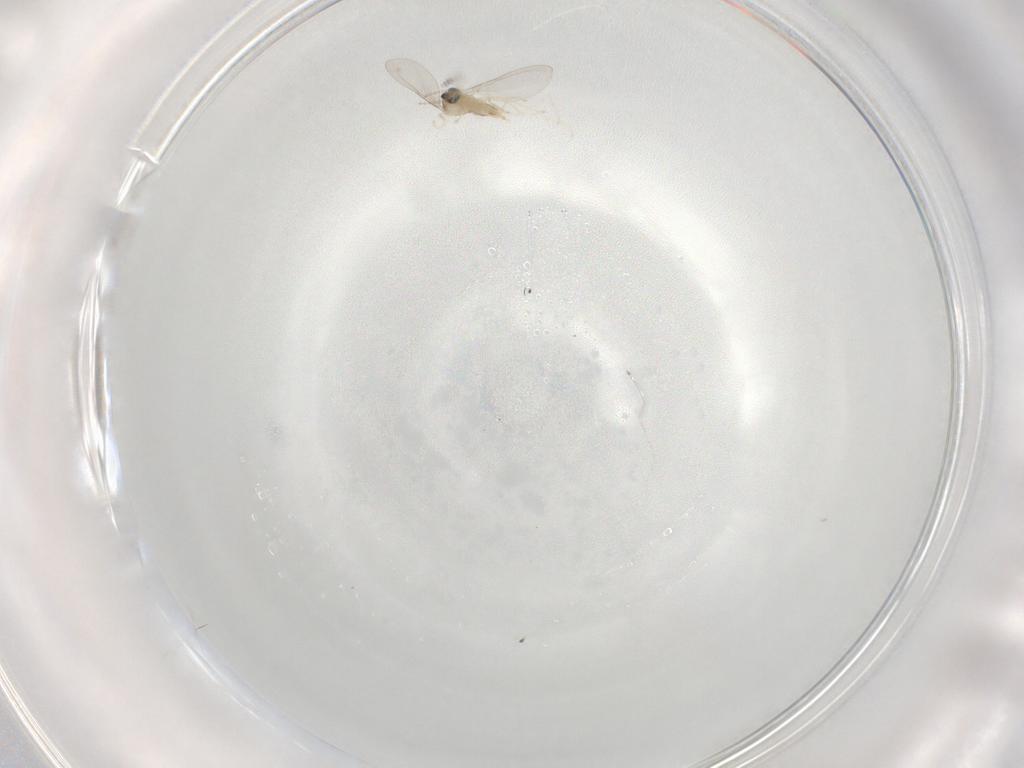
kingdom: Animalia
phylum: Arthropoda
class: Insecta
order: Diptera
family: Cecidomyiidae
